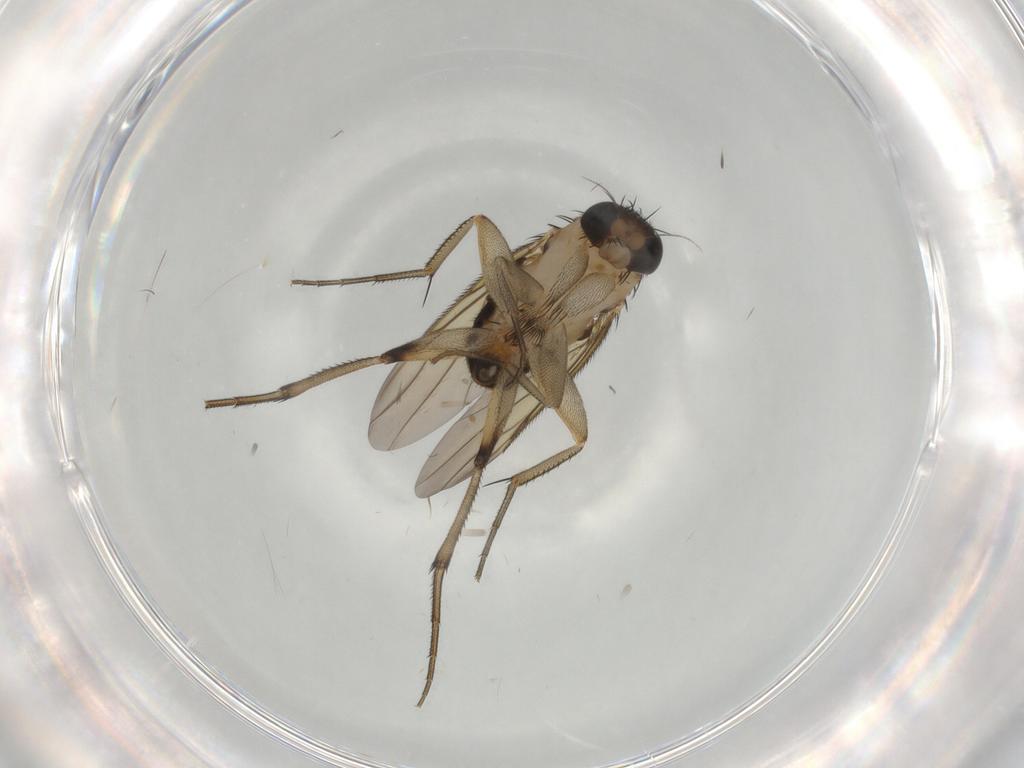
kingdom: Animalia
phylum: Arthropoda
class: Insecta
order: Diptera
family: Phoridae
